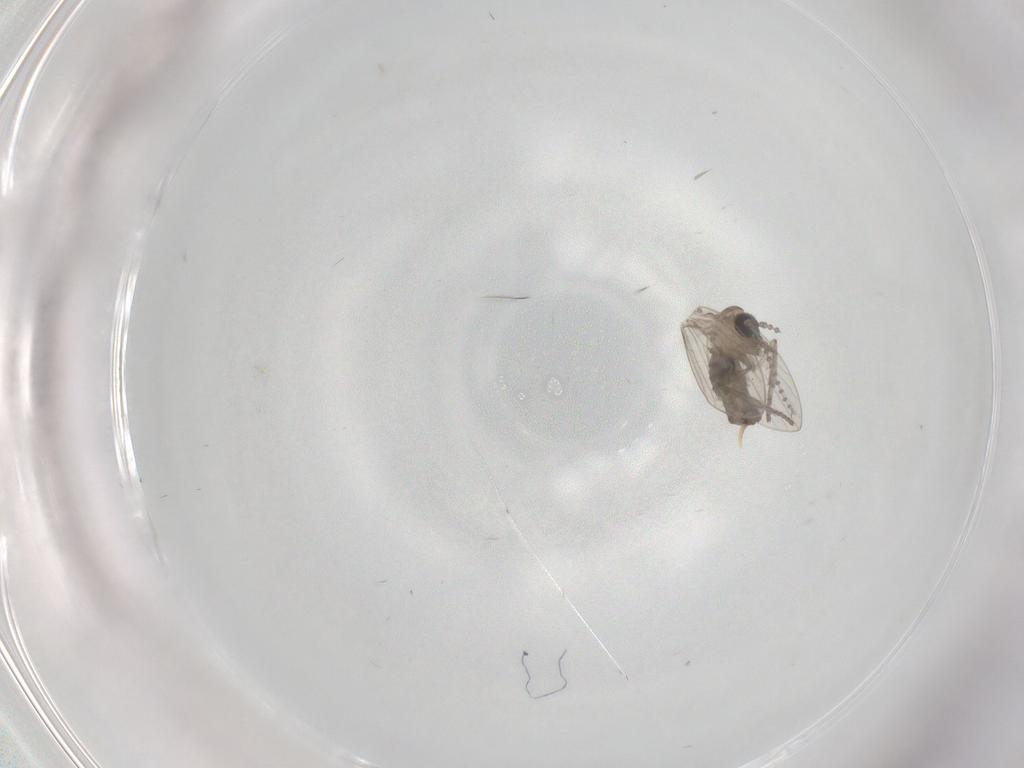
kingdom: Animalia
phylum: Arthropoda
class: Insecta
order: Diptera
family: Psychodidae
